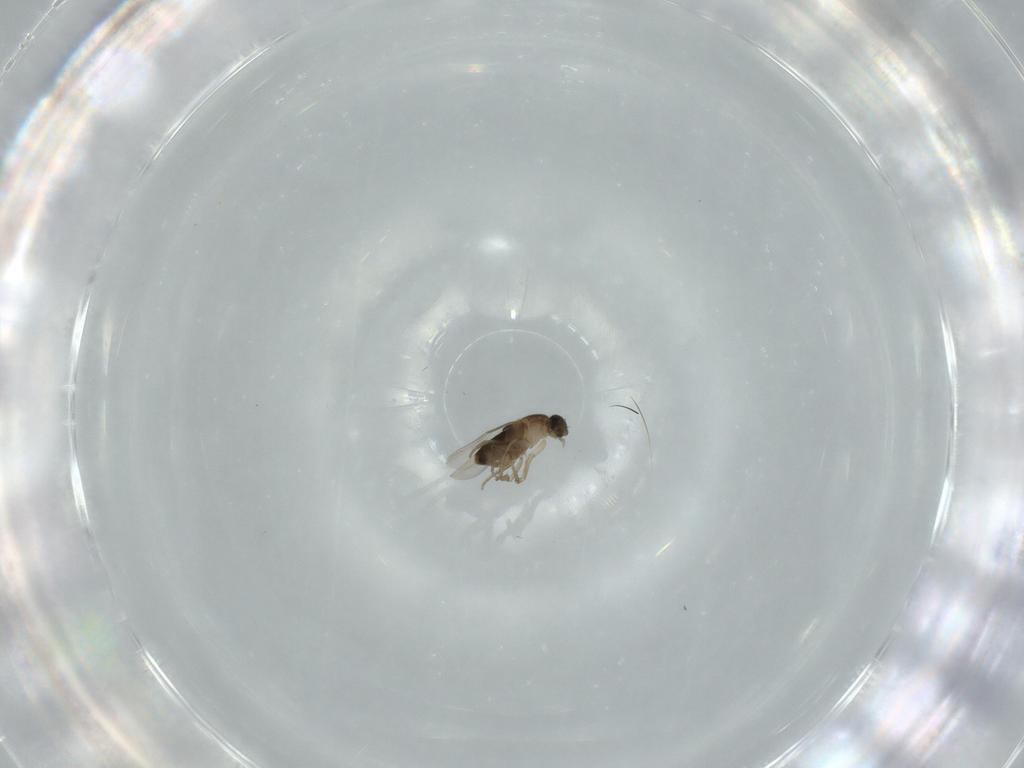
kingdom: Animalia
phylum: Arthropoda
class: Insecta
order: Diptera
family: Phoridae
